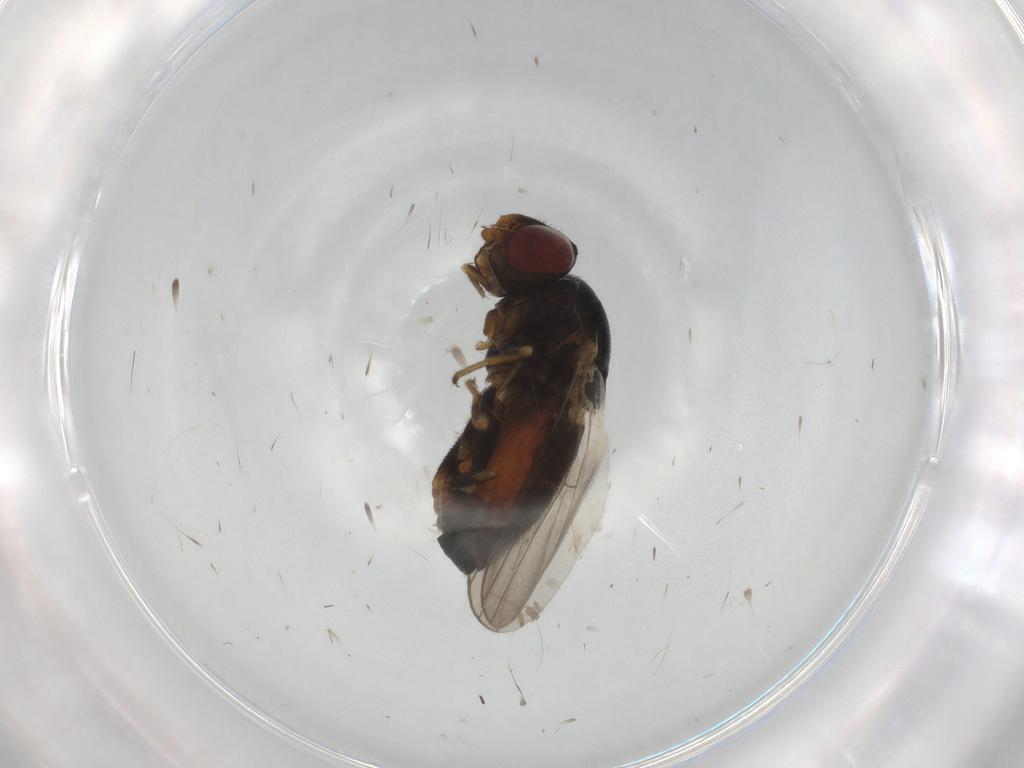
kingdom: Animalia
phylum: Arthropoda
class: Insecta
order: Diptera
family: Chloropidae
